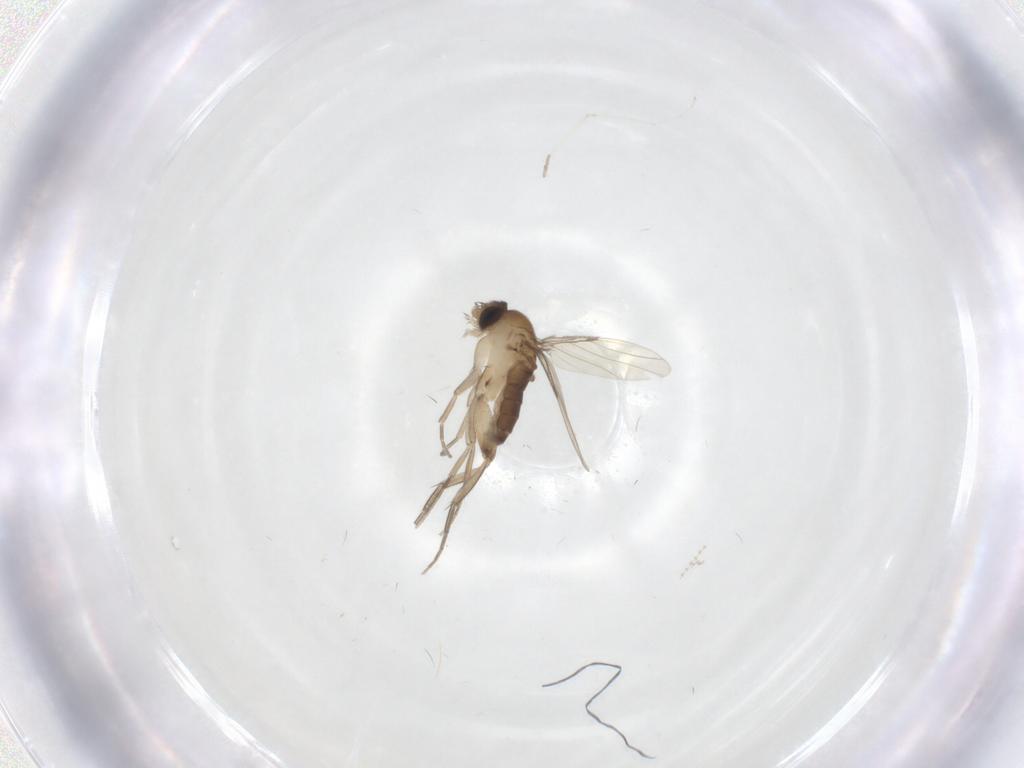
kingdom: Animalia
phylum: Arthropoda
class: Insecta
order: Diptera
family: Phoridae
